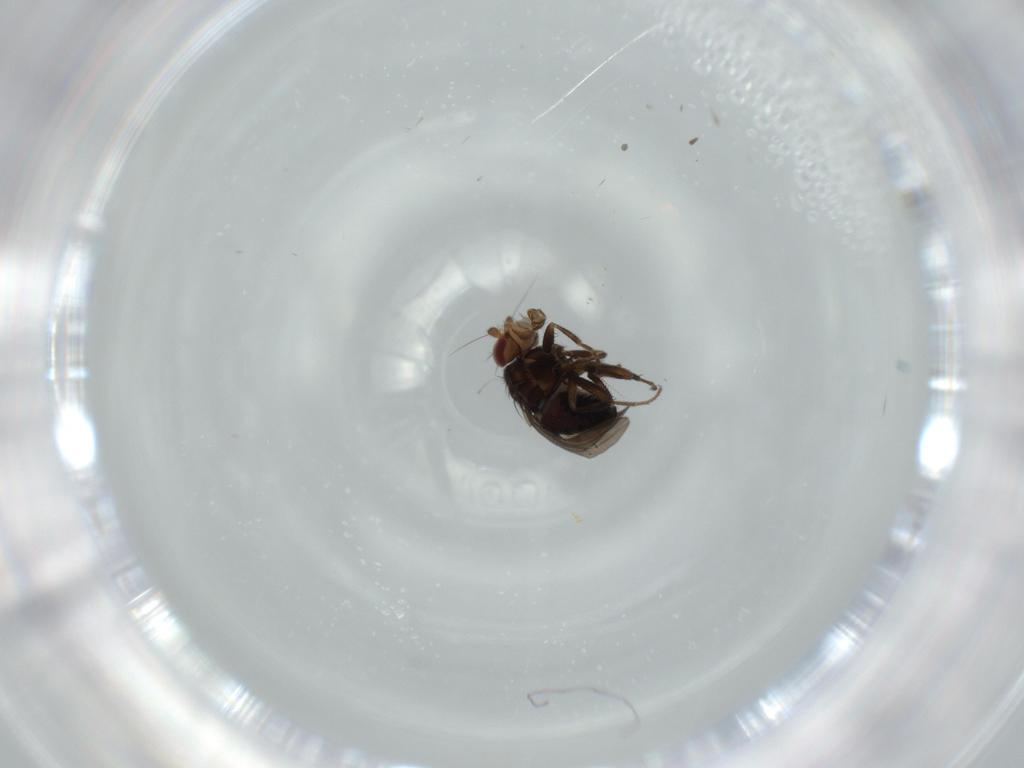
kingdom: Animalia
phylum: Arthropoda
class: Insecta
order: Diptera
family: Sphaeroceridae
